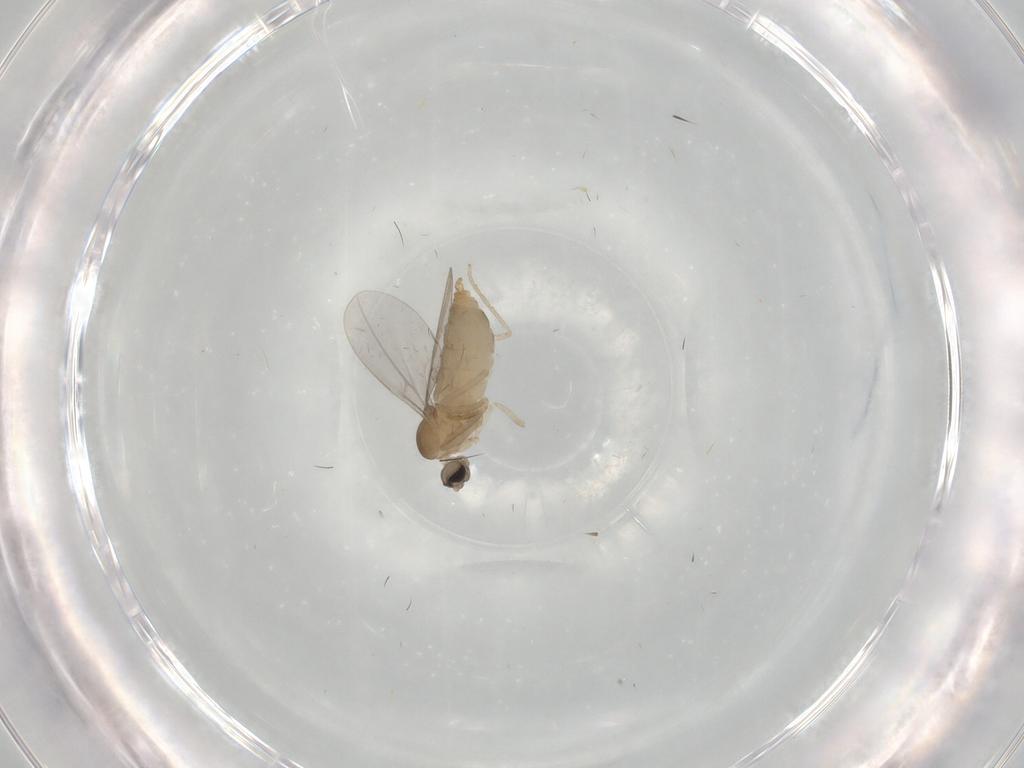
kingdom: Animalia
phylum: Arthropoda
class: Insecta
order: Diptera
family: Cecidomyiidae
